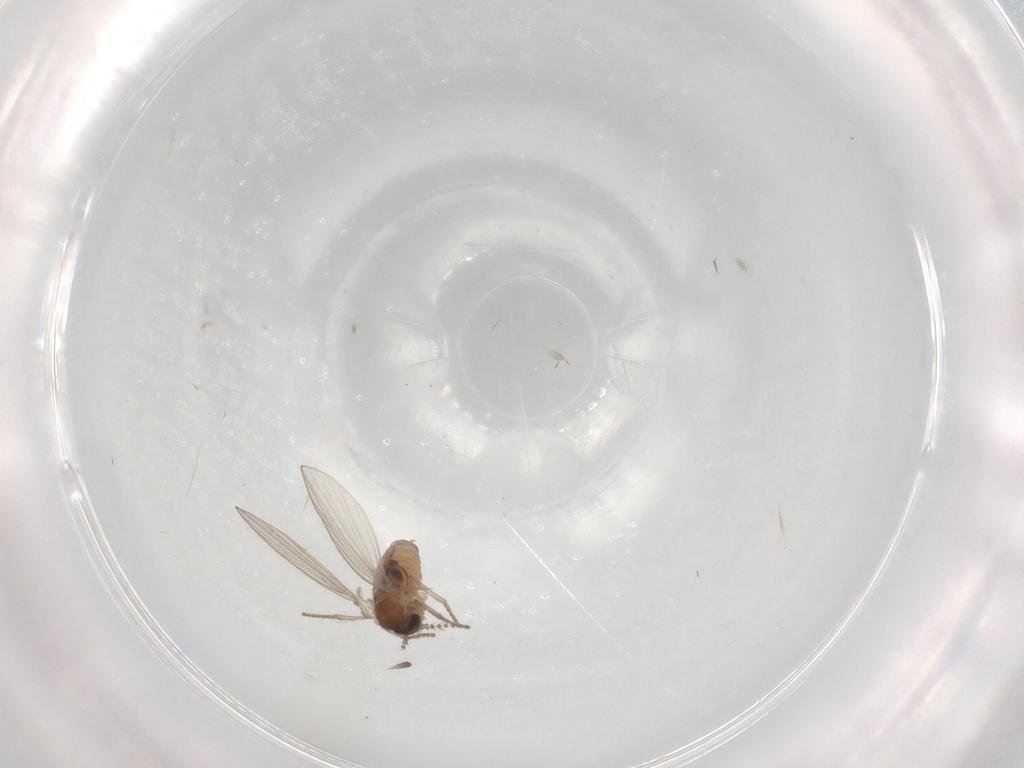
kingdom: Animalia
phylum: Arthropoda
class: Insecta
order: Diptera
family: Psychodidae
